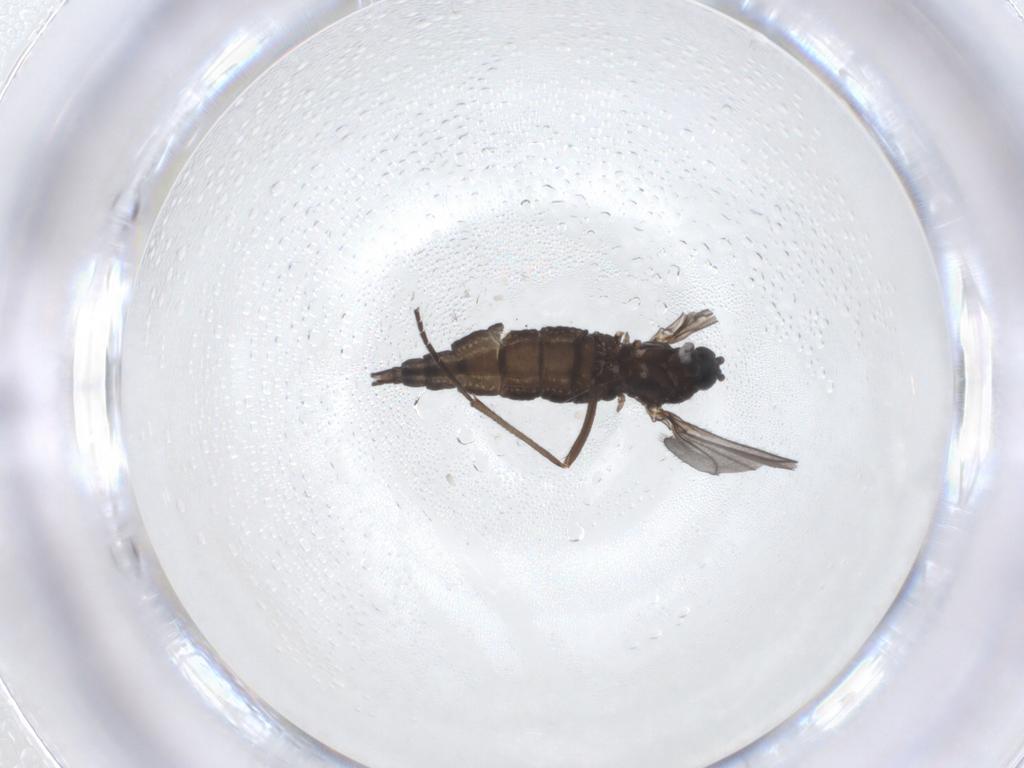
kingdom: Animalia
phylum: Arthropoda
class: Insecta
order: Diptera
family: Sciaridae
